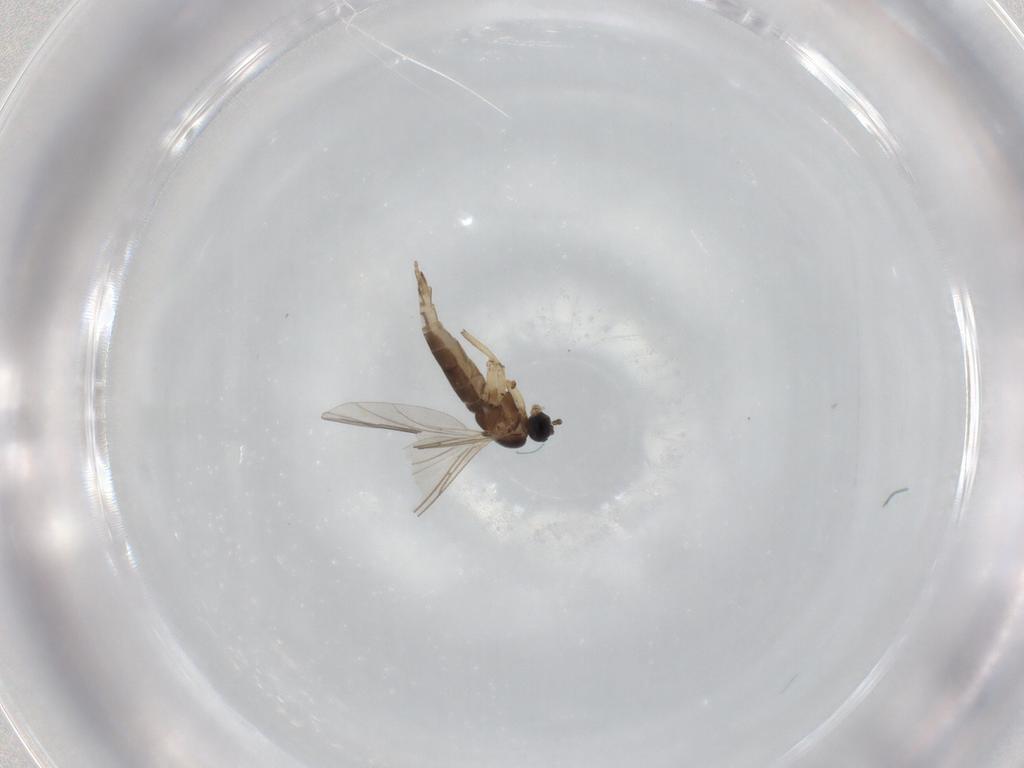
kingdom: Animalia
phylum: Arthropoda
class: Insecta
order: Diptera
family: Sciaridae
